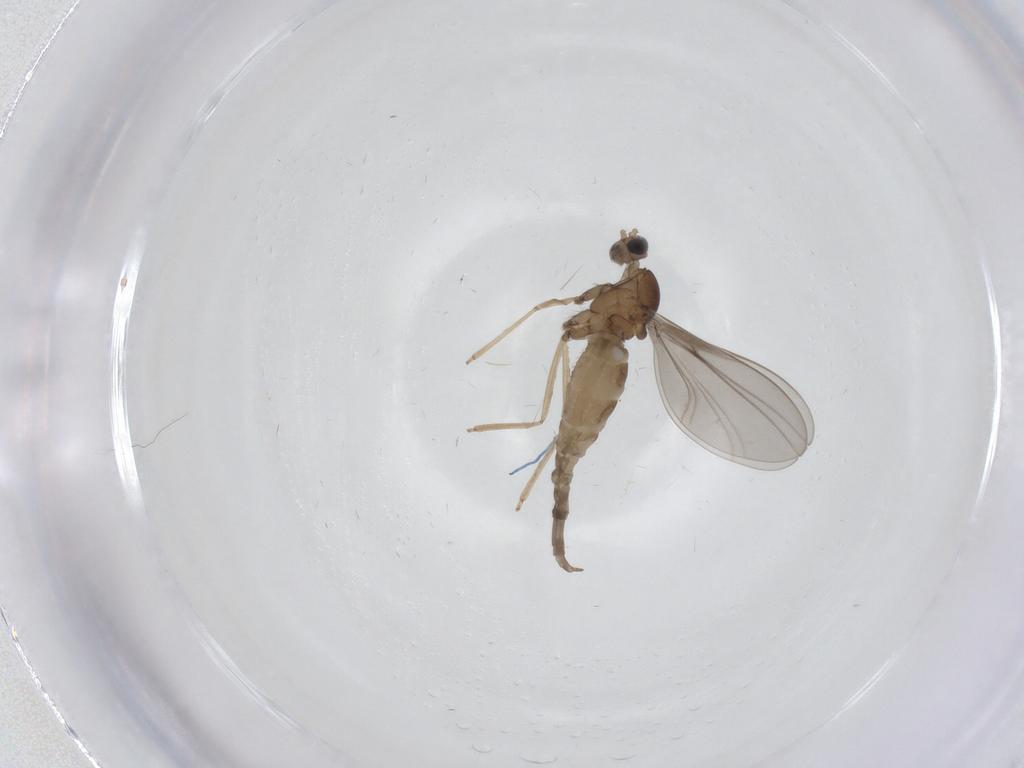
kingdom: Animalia
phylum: Arthropoda
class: Insecta
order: Diptera
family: Cecidomyiidae
